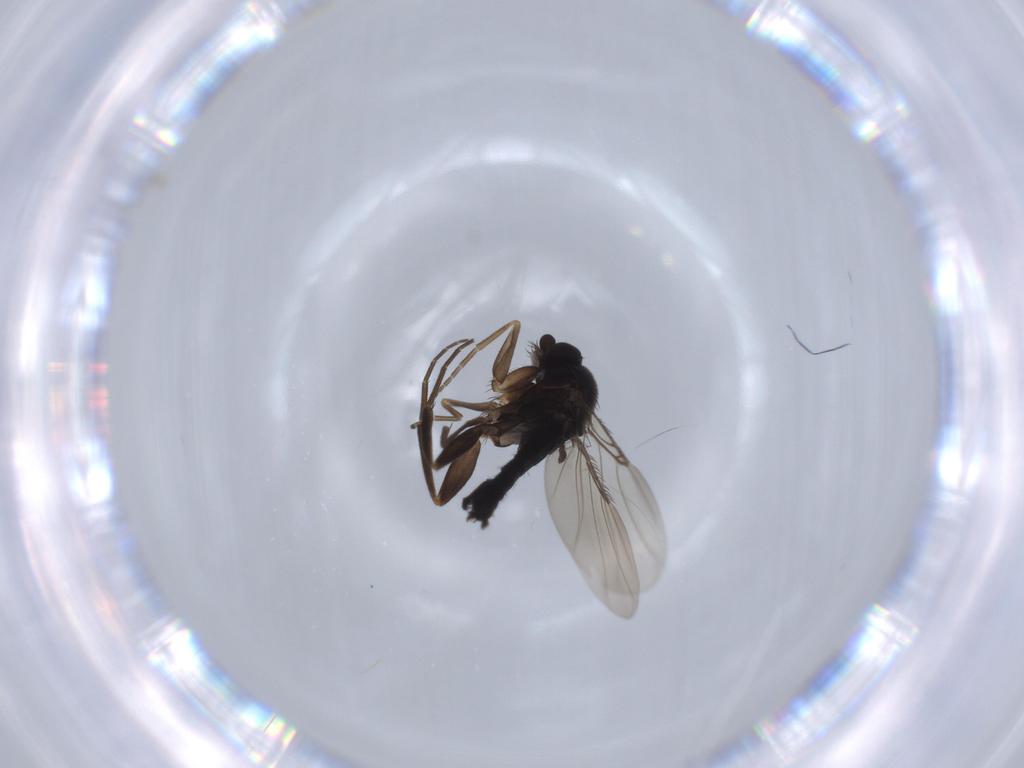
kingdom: Animalia
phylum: Arthropoda
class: Insecta
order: Diptera
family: Phoridae
